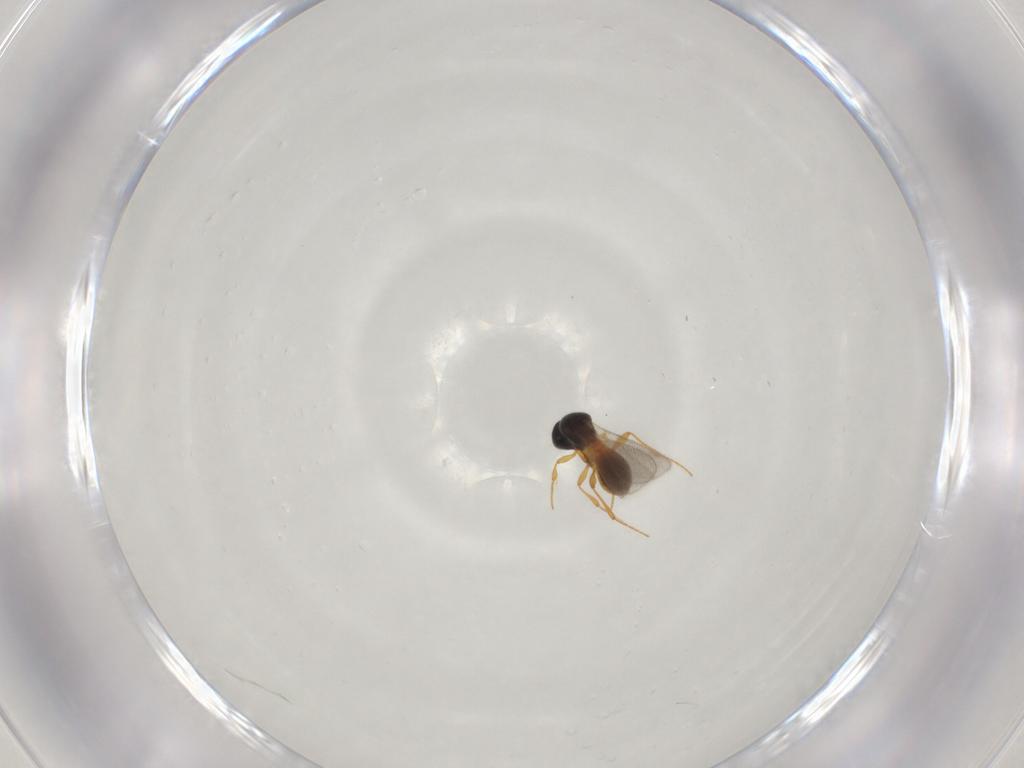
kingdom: Animalia
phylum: Arthropoda
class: Insecta
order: Hymenoptera
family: Platygastridae
